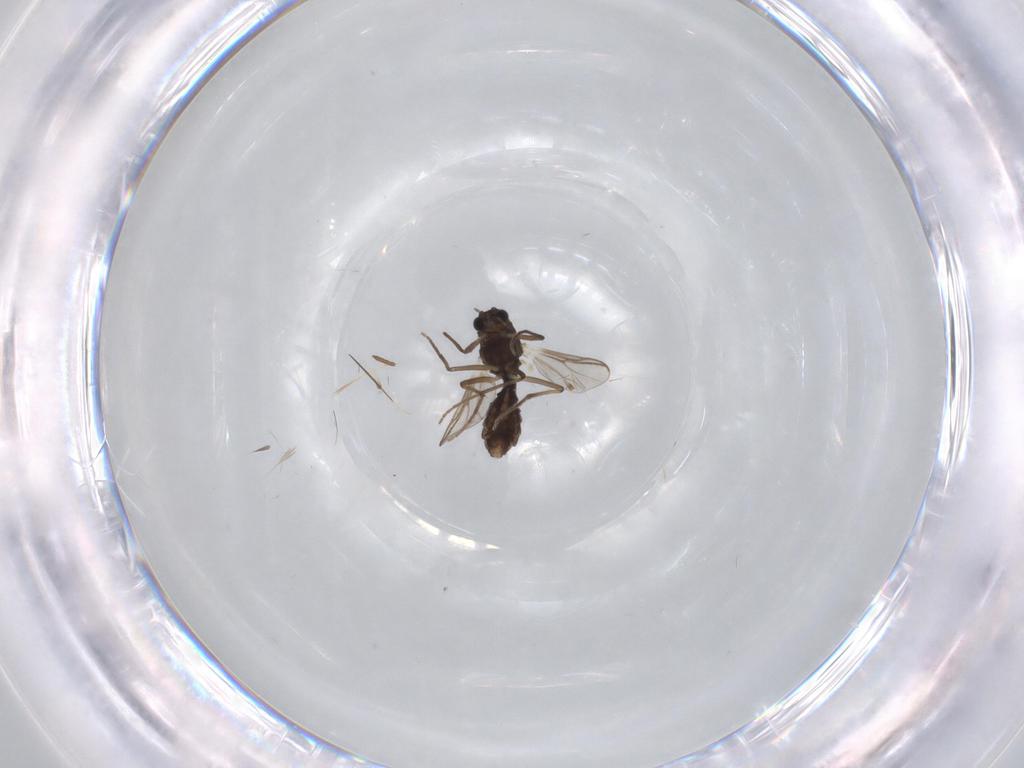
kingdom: Animalia
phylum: Arthropoda
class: Insecta
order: Diptera
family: Chironomidae
